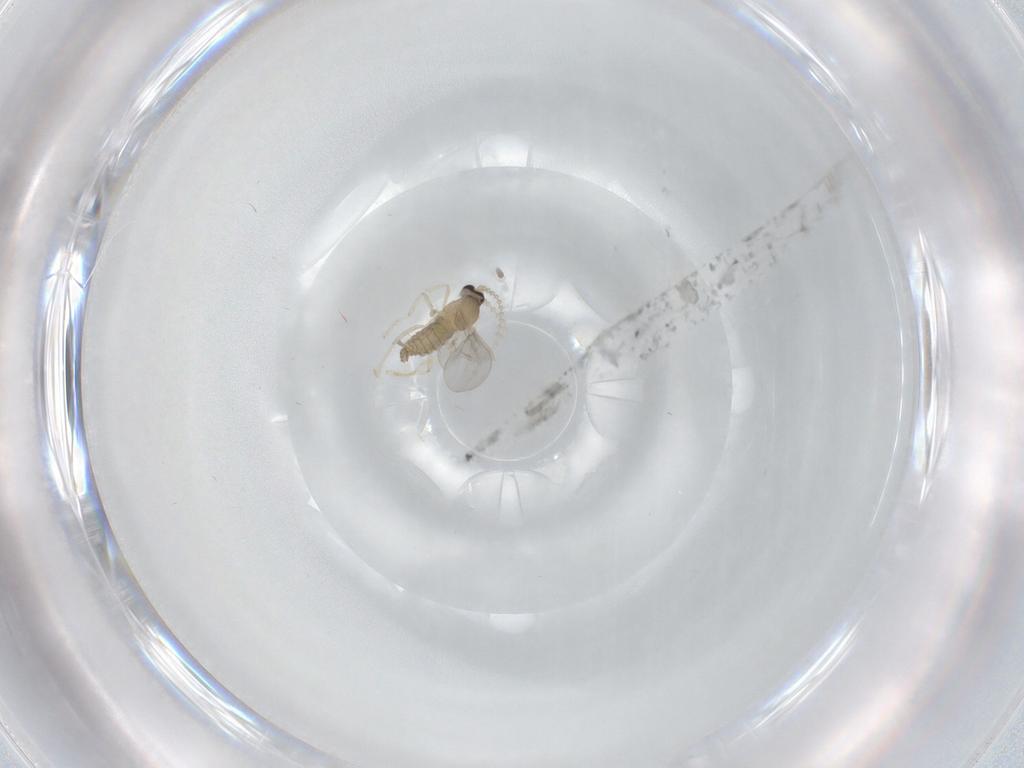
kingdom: Animalia
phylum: Arthropoda
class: Insecta
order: Diptera
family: Cecidomyiidae
